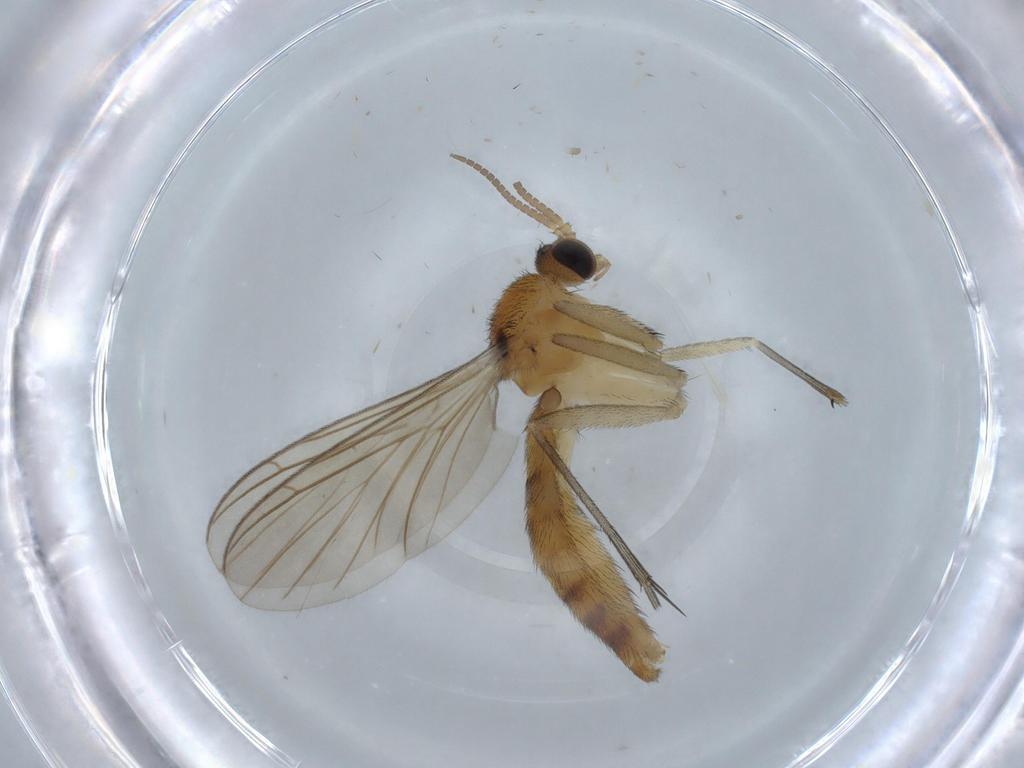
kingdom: Animalia
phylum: Arthropoda
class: Insecta
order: Diptera
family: Keroplatidae
